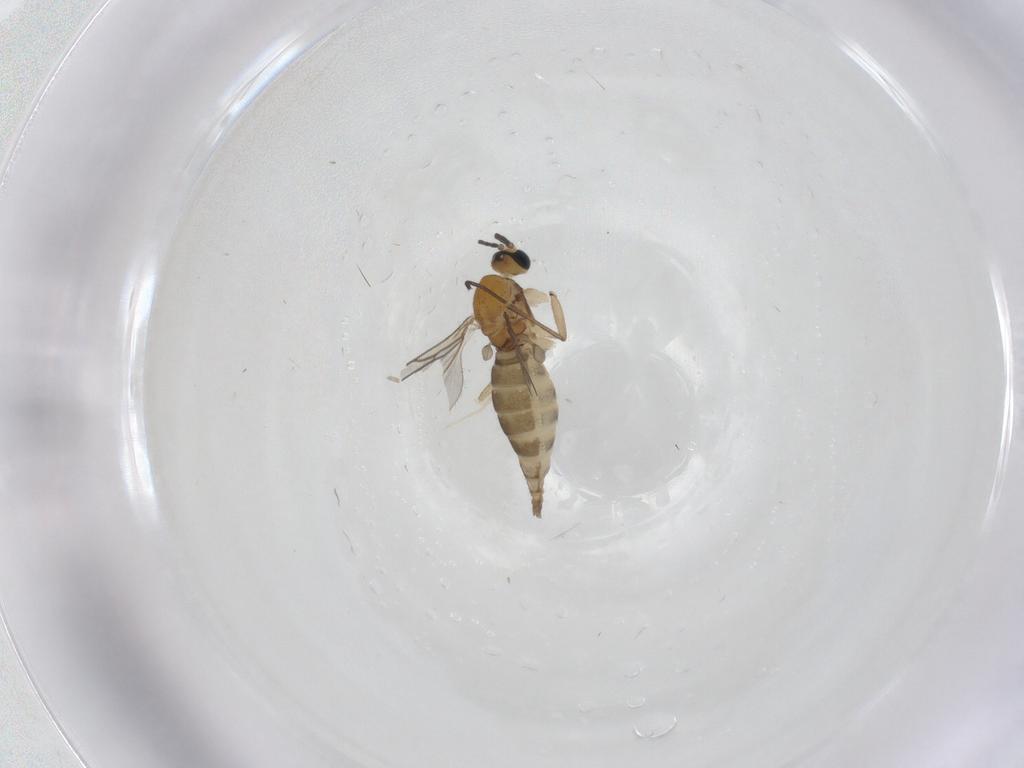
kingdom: Animalia
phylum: Arthropoda
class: Insecta
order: Diptera
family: Sciaridae
